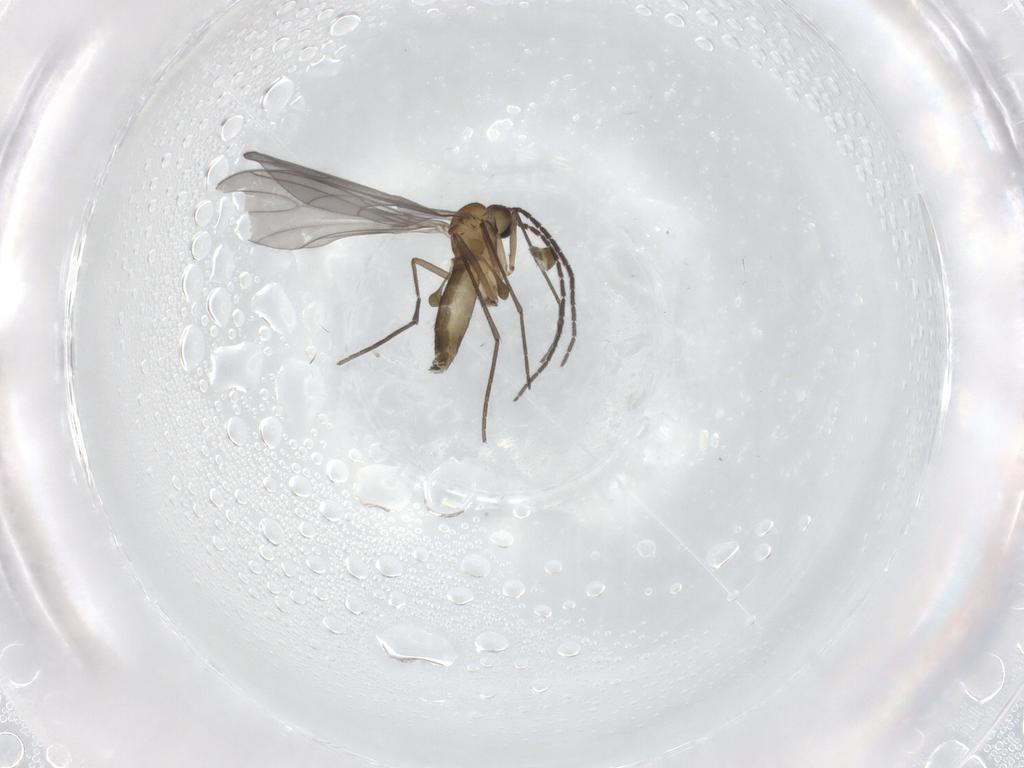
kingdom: Animalia
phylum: Arthropoda
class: Insecta
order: Diptera
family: Sciaridae
